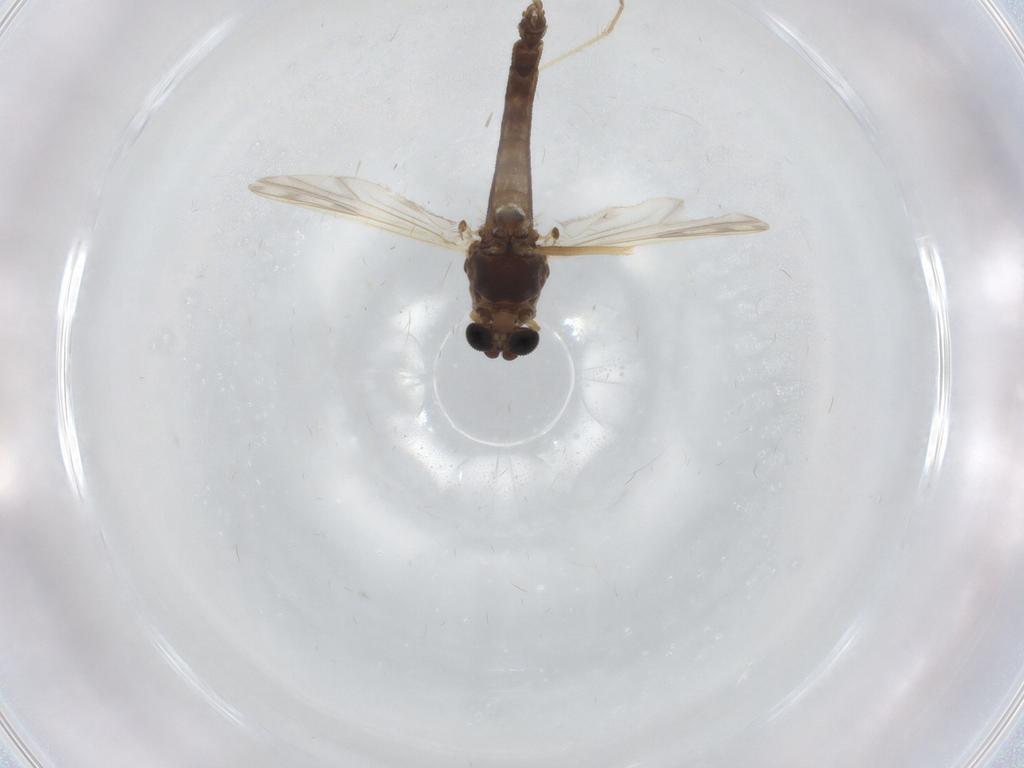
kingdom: Animalia
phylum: Arthropoda
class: Insecta
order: Diptera
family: Chironomidae
